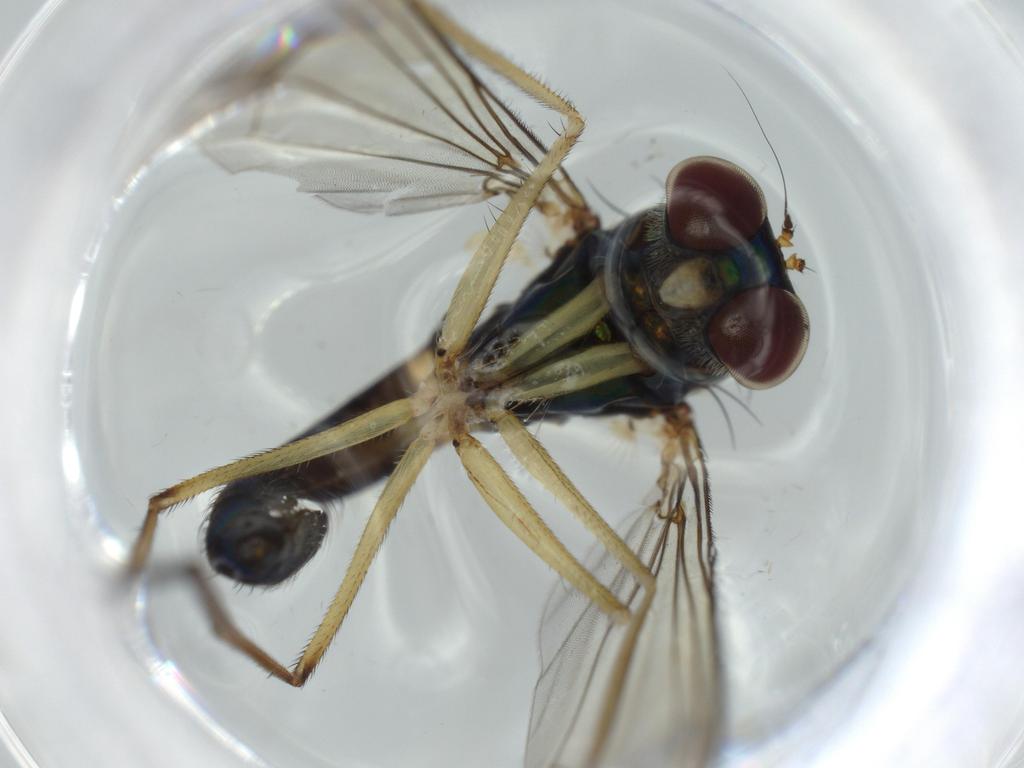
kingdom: Animalia
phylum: Arthropoda
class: Insecta
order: Diptera
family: Dolichopodidae
